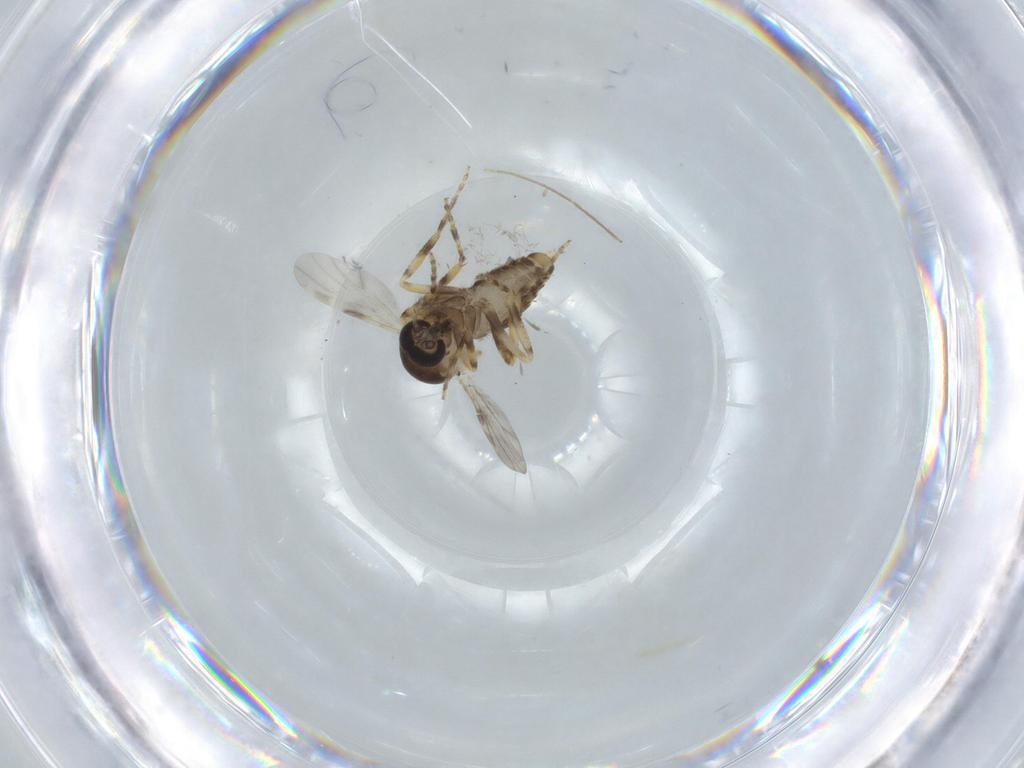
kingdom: Animalia
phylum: Arthropoda
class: Insecta
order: Diptera
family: Ceratopogonidae
